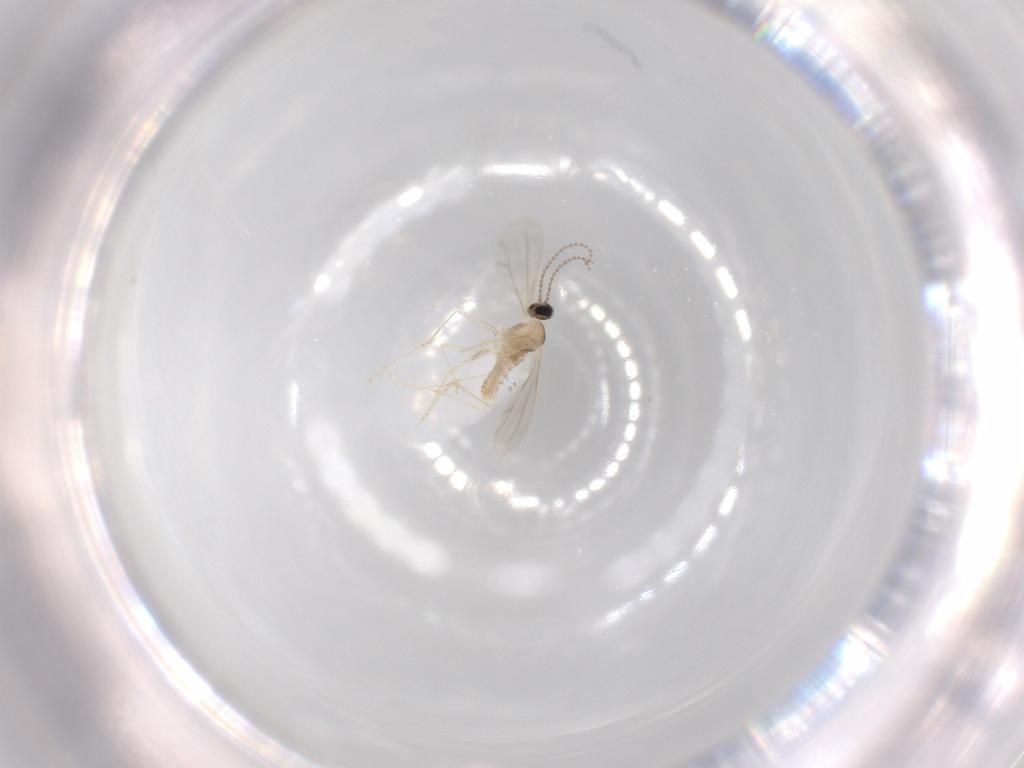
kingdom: Animalia
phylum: Arthropoda
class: Insecta
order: Diptera
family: Cecidomyiidae
